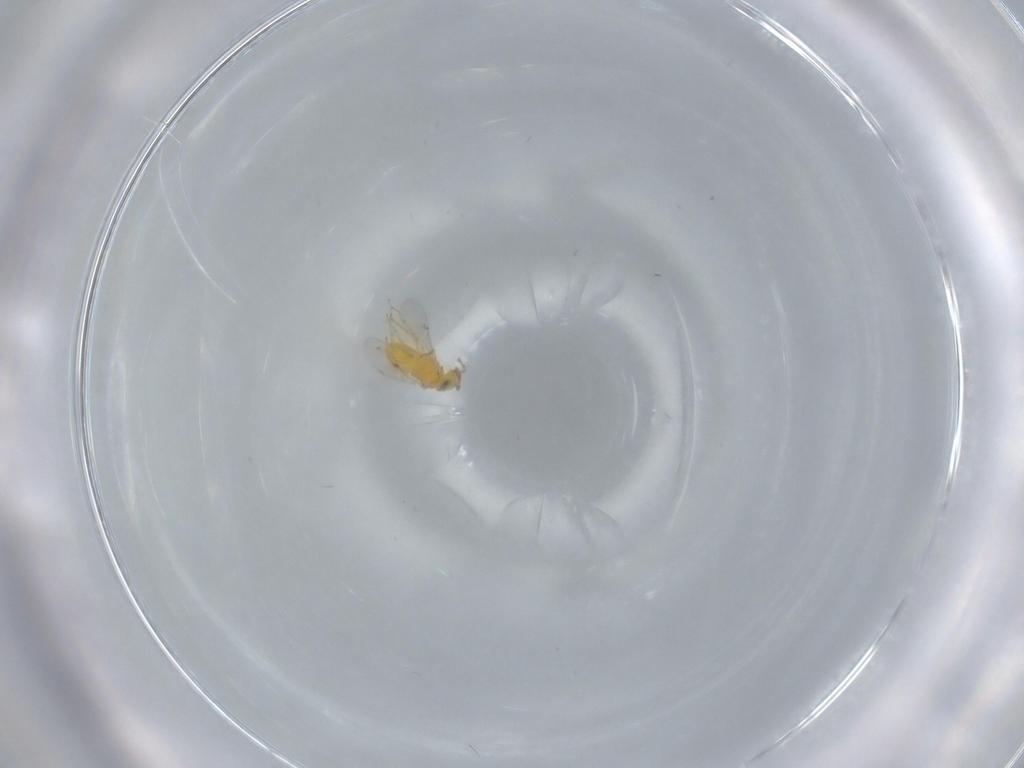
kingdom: Animalia
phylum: Arthropoda
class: Insecta
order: Hymenoptera
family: Encyrtidae
